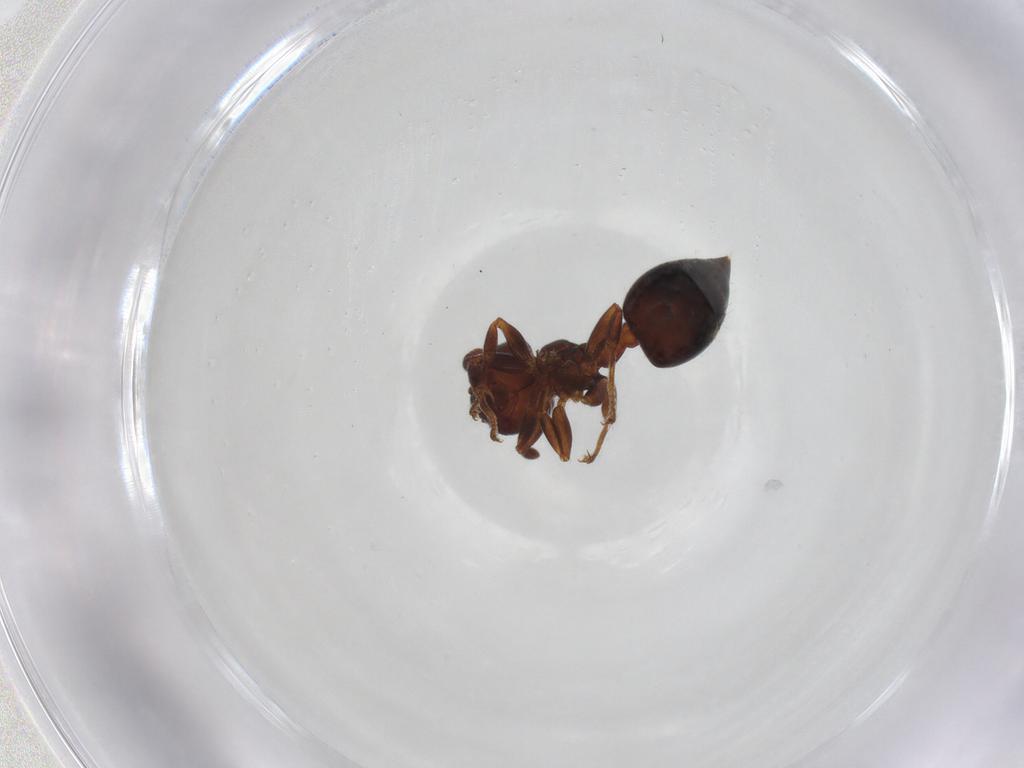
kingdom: Animalia
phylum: Arthropoda
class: Insecta
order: Hymenoptera
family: Formicidae
